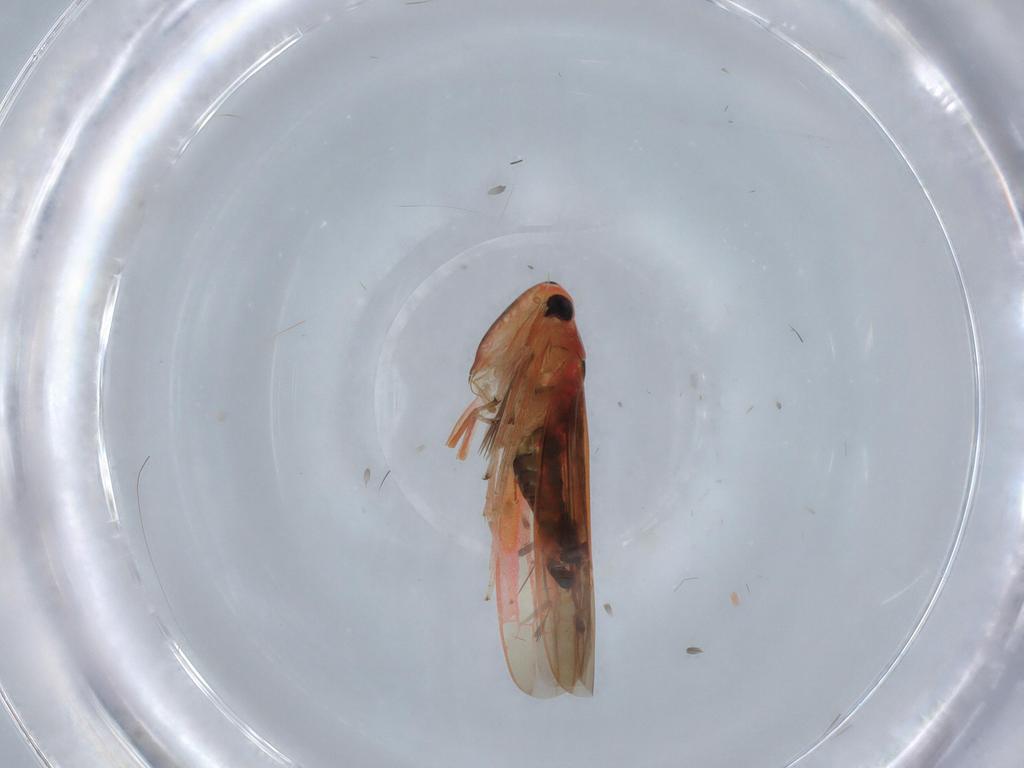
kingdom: Animalia
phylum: Arthropoda
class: Insecta
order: Hemiptera
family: Cicadellidae
